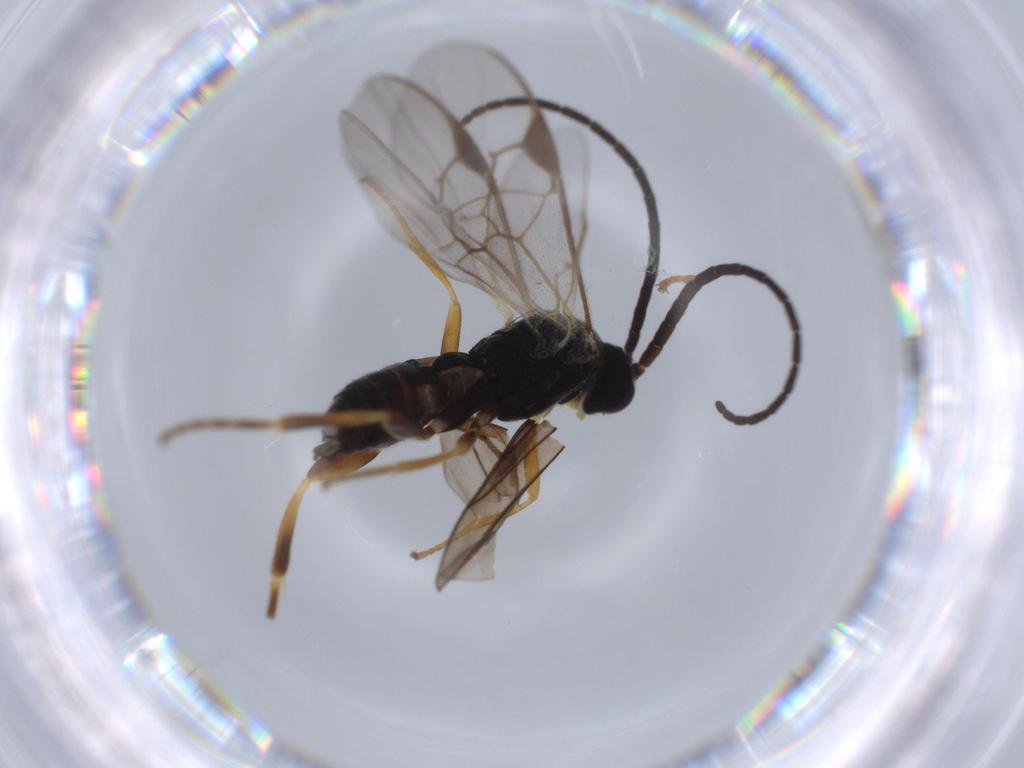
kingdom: Animalia
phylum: Arthropoda
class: Insecta
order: Hymenoptera
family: Braconidae
